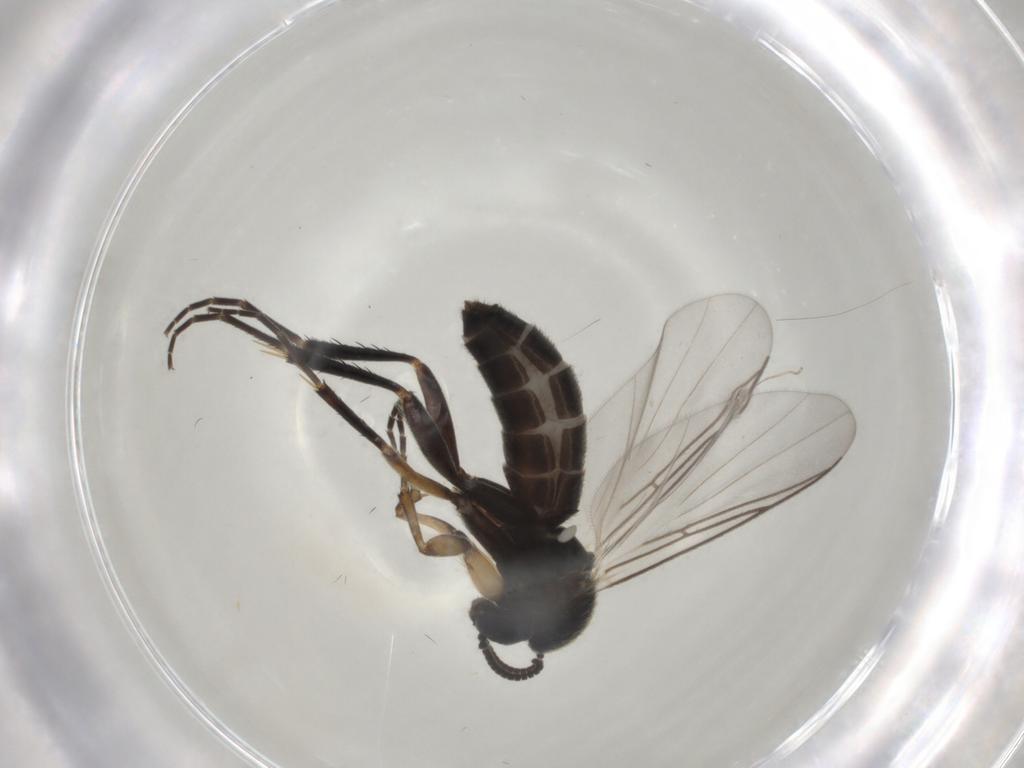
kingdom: Animalia
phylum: Arthropoda
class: Insecta
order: Diptera
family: Mycetophilidae
